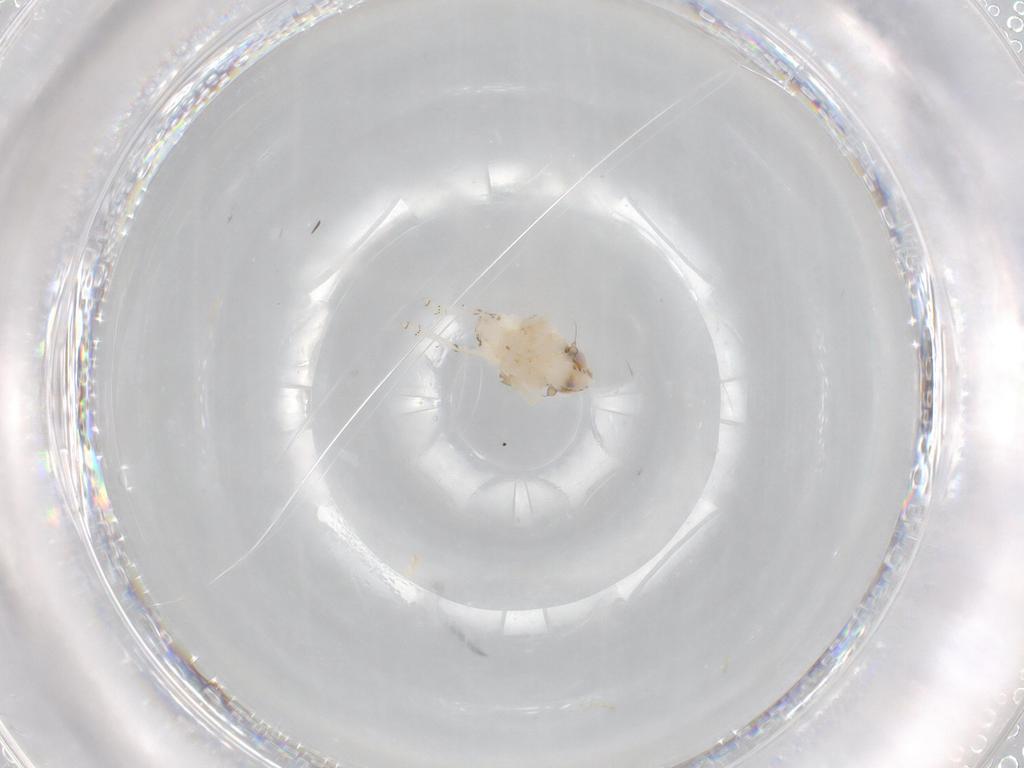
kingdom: Animalia
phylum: Arthropoda
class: Insecta
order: Hemiptera
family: Nogodinidae
